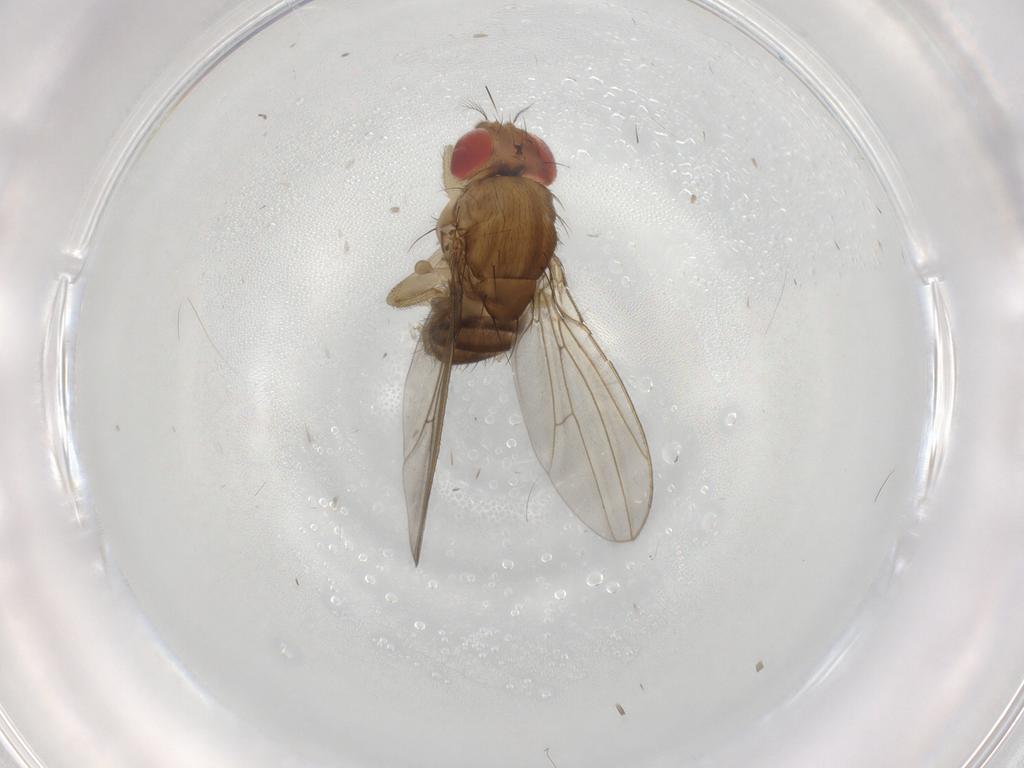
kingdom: Animalia
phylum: Arthropoda
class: Insecta
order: Diptera
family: Drosophilidae
